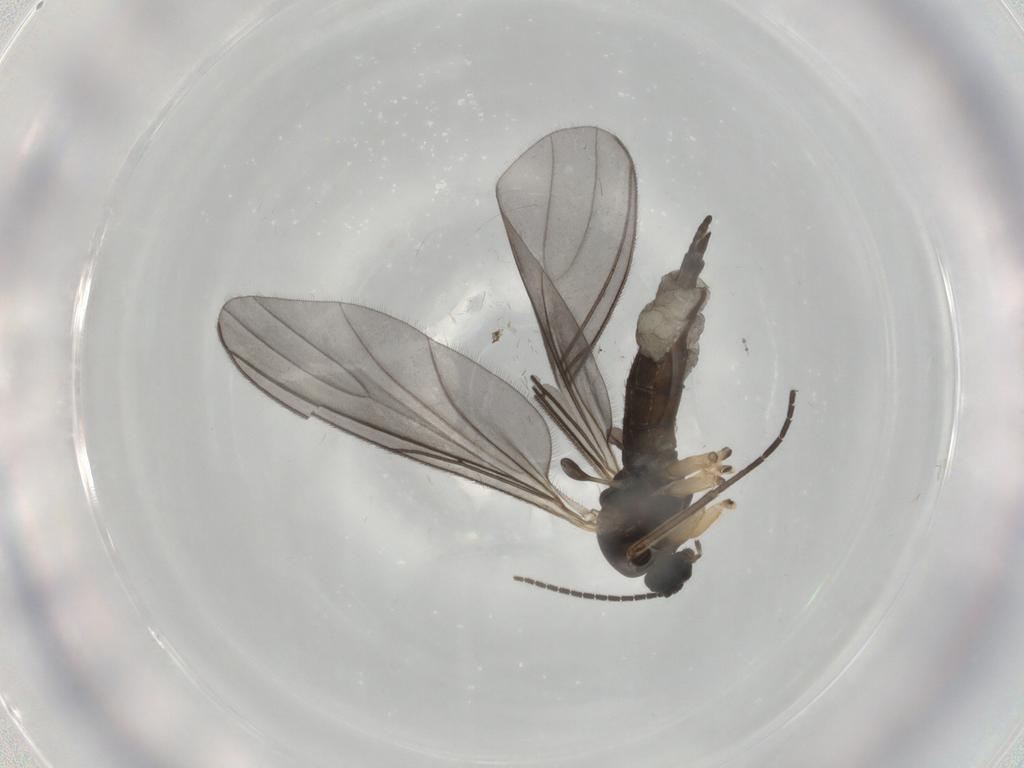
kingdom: Animalia
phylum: Arthropoda
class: Insecta
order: Diptera
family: Sciaridae
